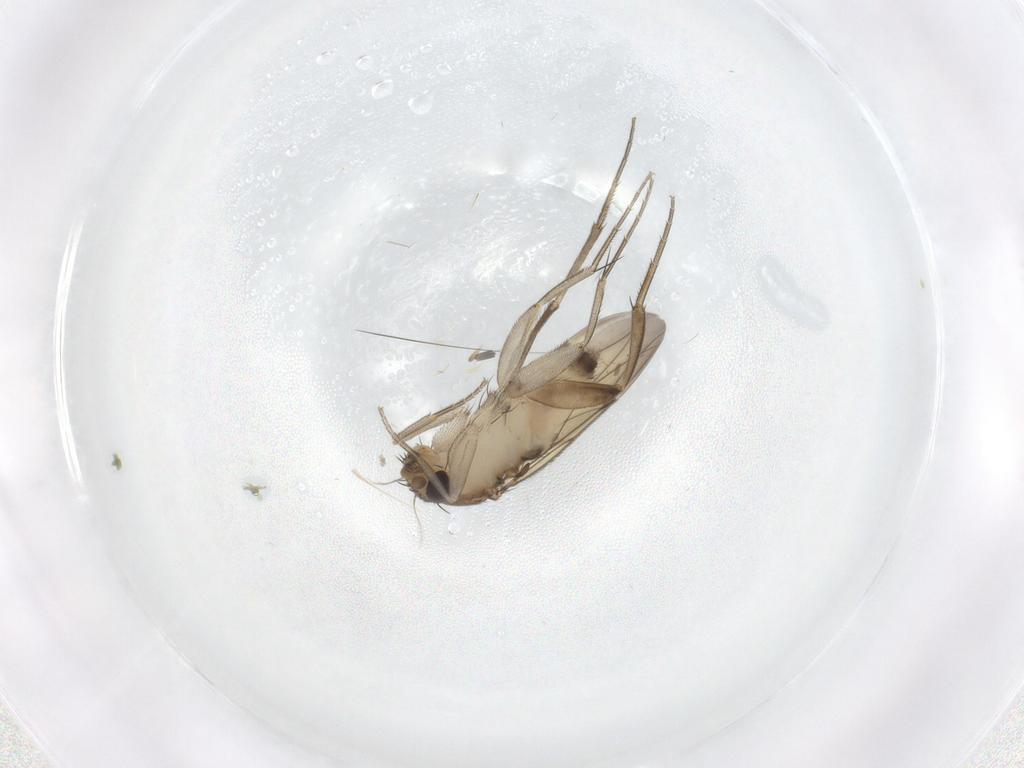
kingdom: Animalia
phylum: Arthropoda
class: Insecta
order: Diptera
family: Phoridae
